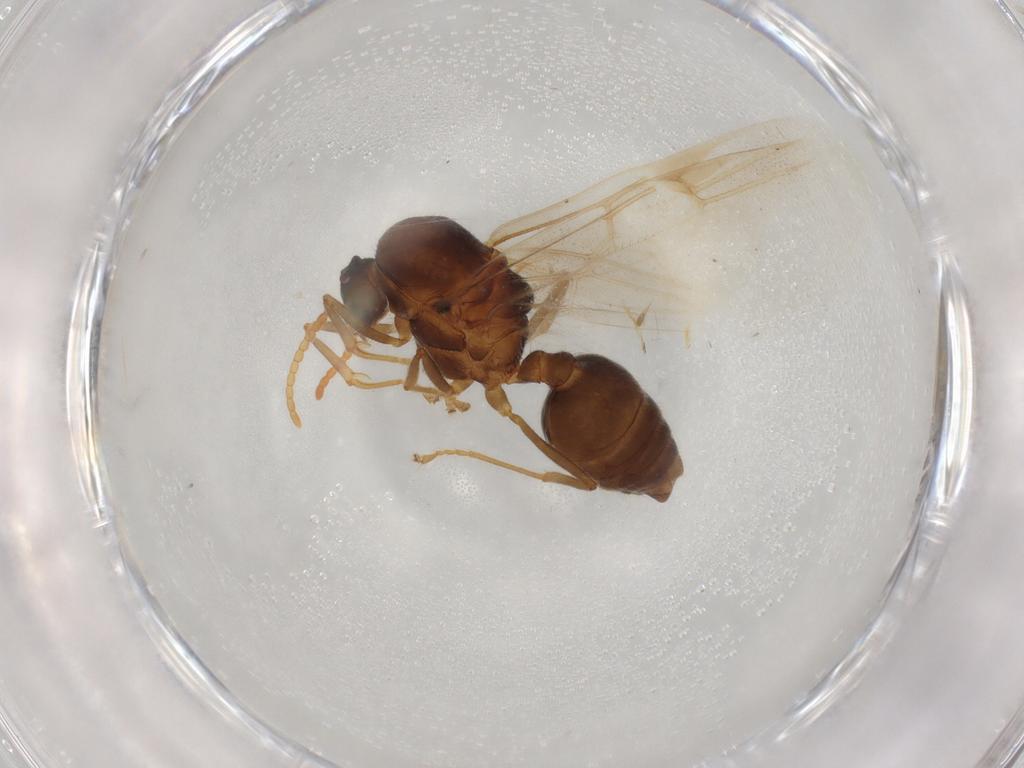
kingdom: Animalia
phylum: Arthropoda
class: Insecta
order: Hymenoptera
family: Formicidae
